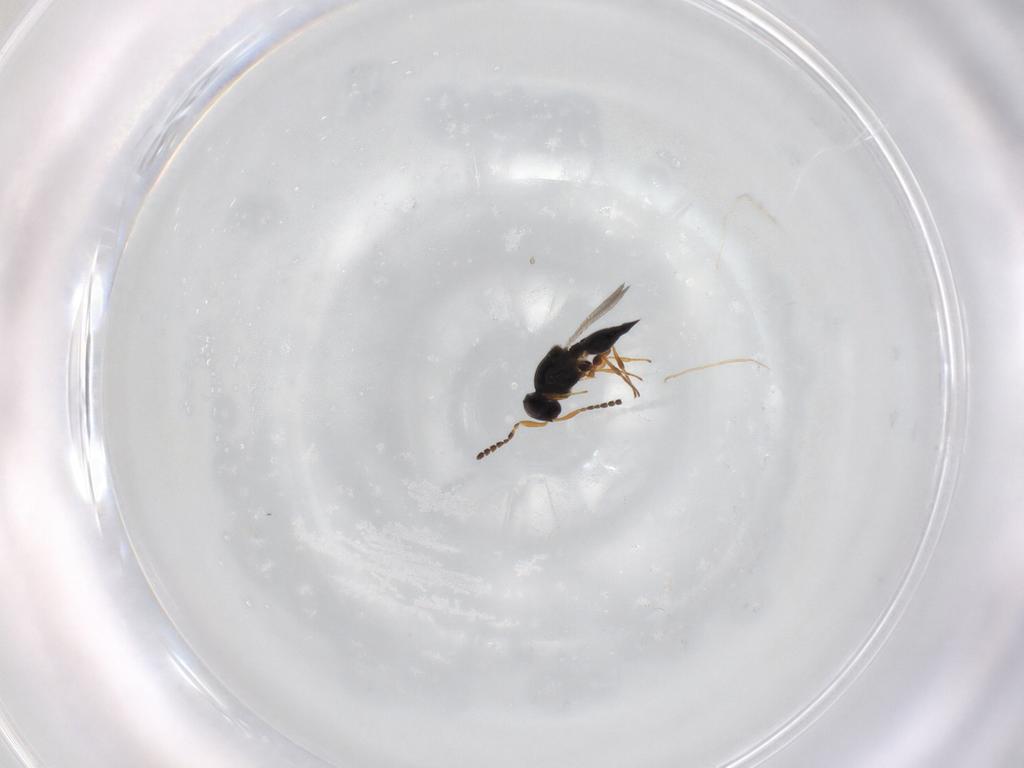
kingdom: Animalia
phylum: Arthropoda
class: Insecta
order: Hymenoptera
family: Platygastridae
